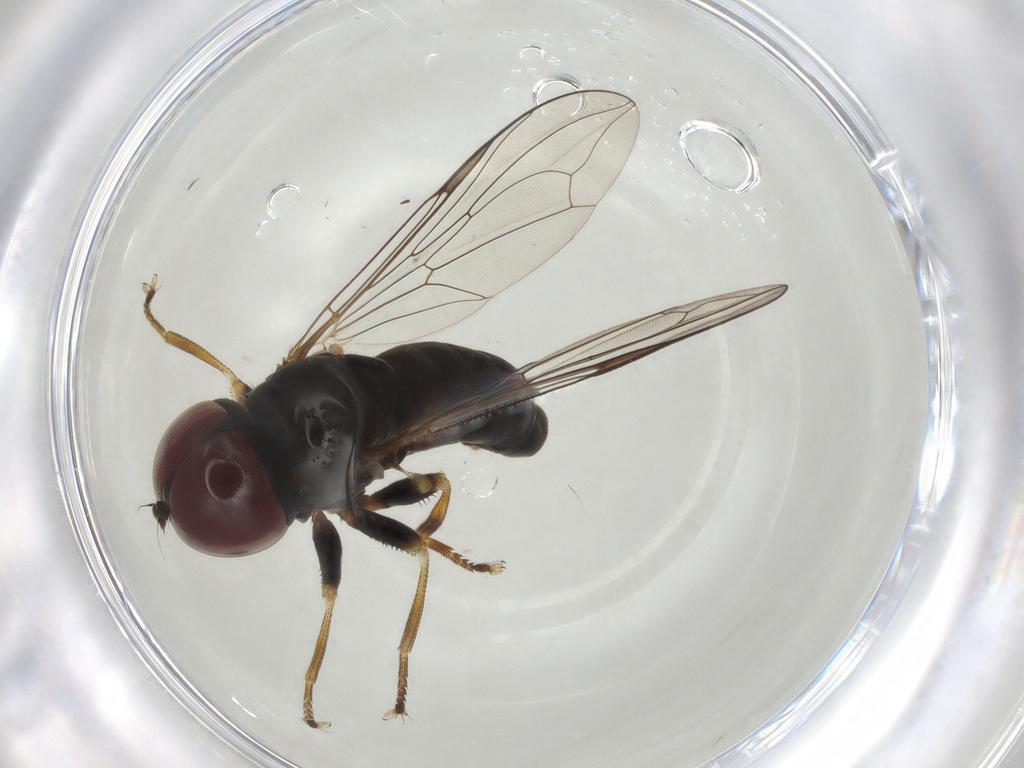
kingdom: Animalia
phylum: Arthropoda
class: Insecta
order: Diptera
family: Pipunculidae
